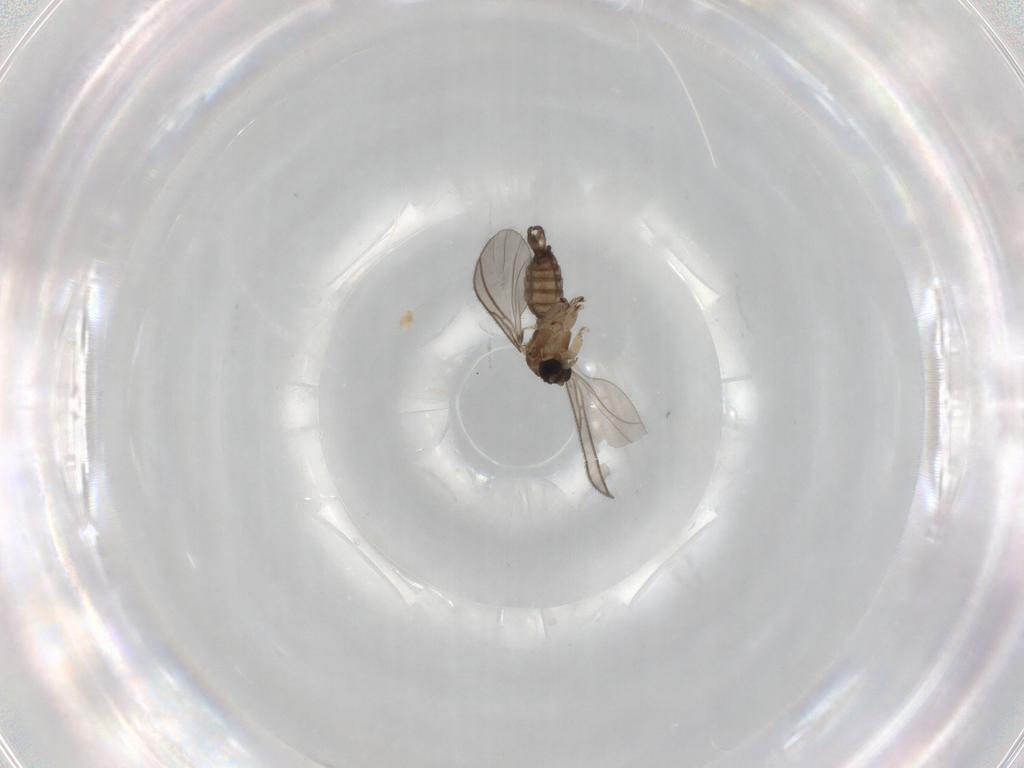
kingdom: Animalia
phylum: Arthropoda
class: Insecta
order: Diptera
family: Sciaridae
